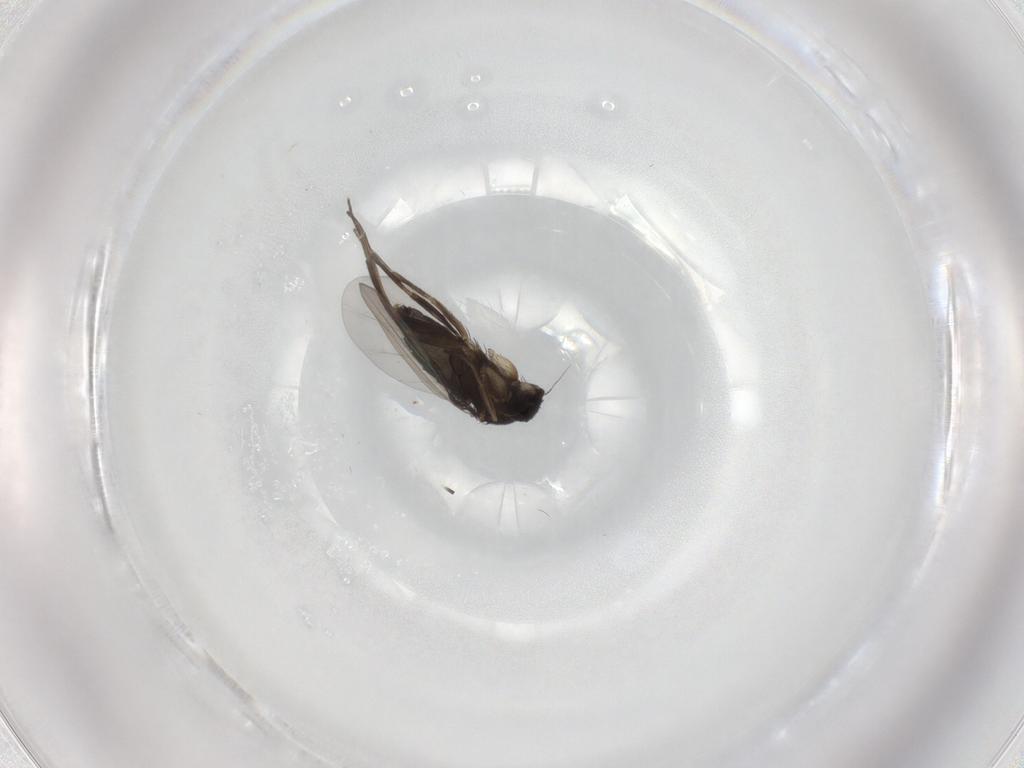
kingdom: Animalia
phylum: Arthropoda
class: Insecta
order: Diptera
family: Phoridae
